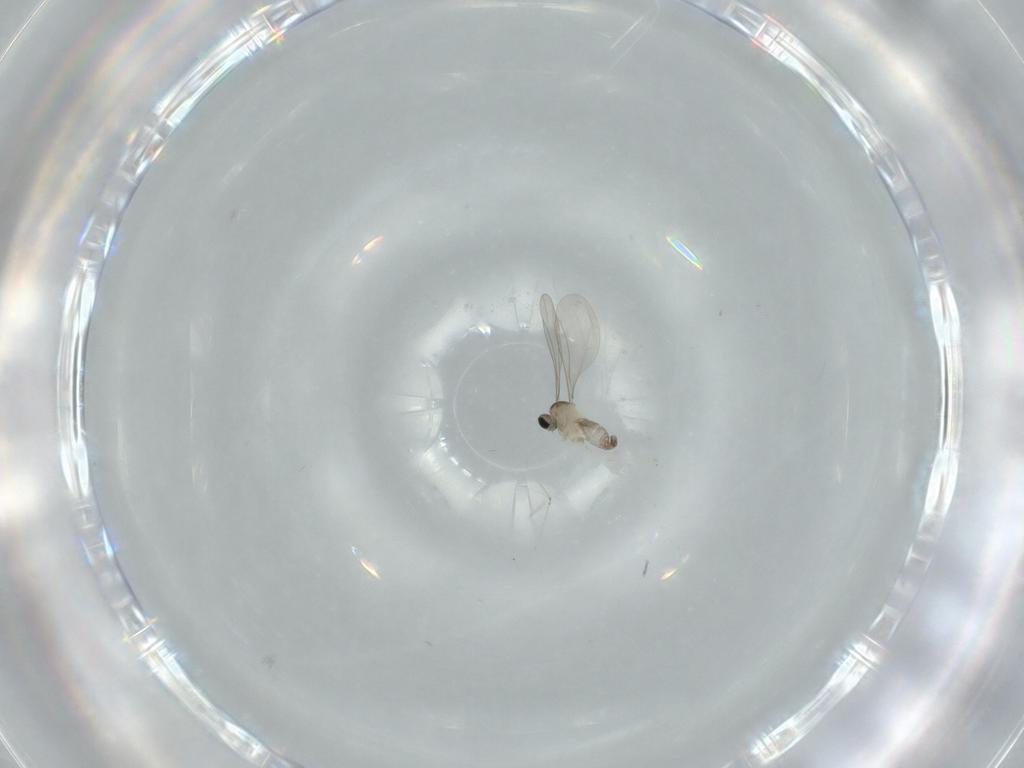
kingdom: Animalia
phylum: Arthropoda
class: Insecta
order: Diptera
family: Cecidomyiidae
